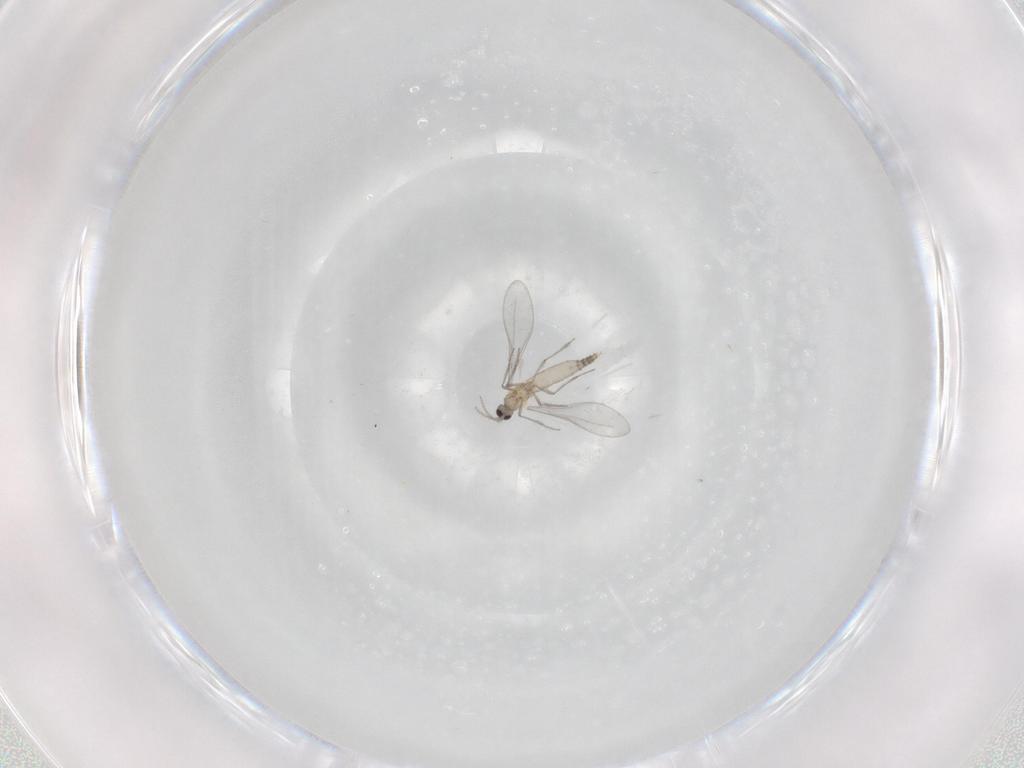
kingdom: Animalia
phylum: Arthropoda
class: Insecta
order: Diptera
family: Cecidomyiidae
